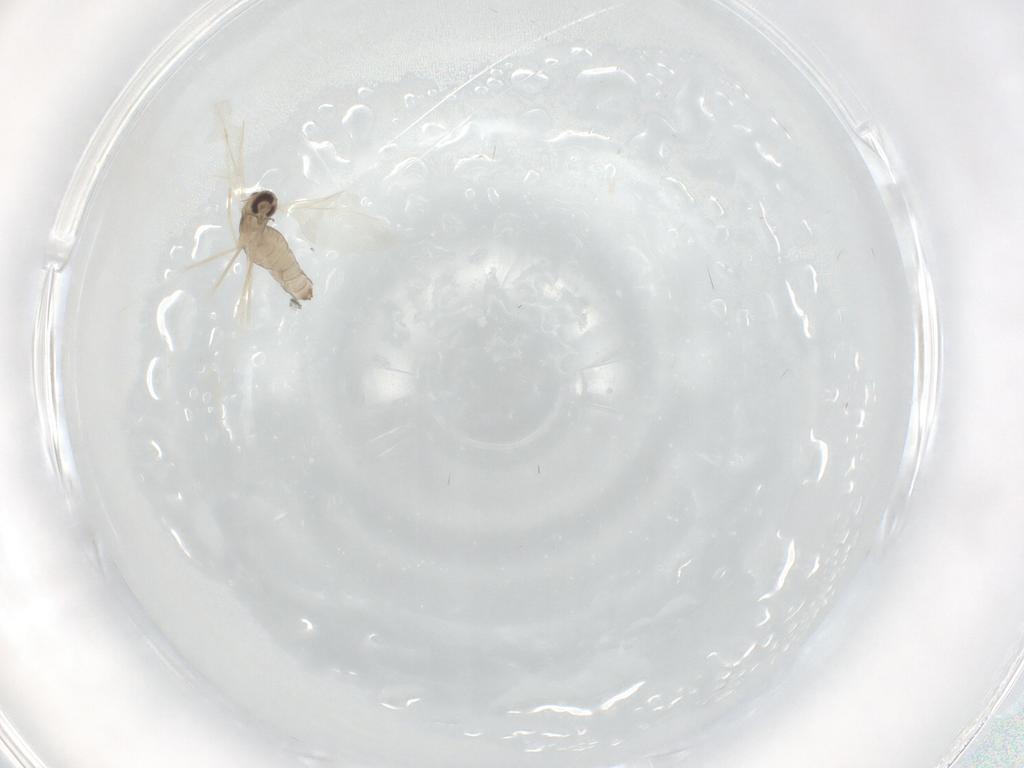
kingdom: Animalia
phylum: Arthropoda
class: Insecta
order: Diptera
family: Cecidomyiidae
